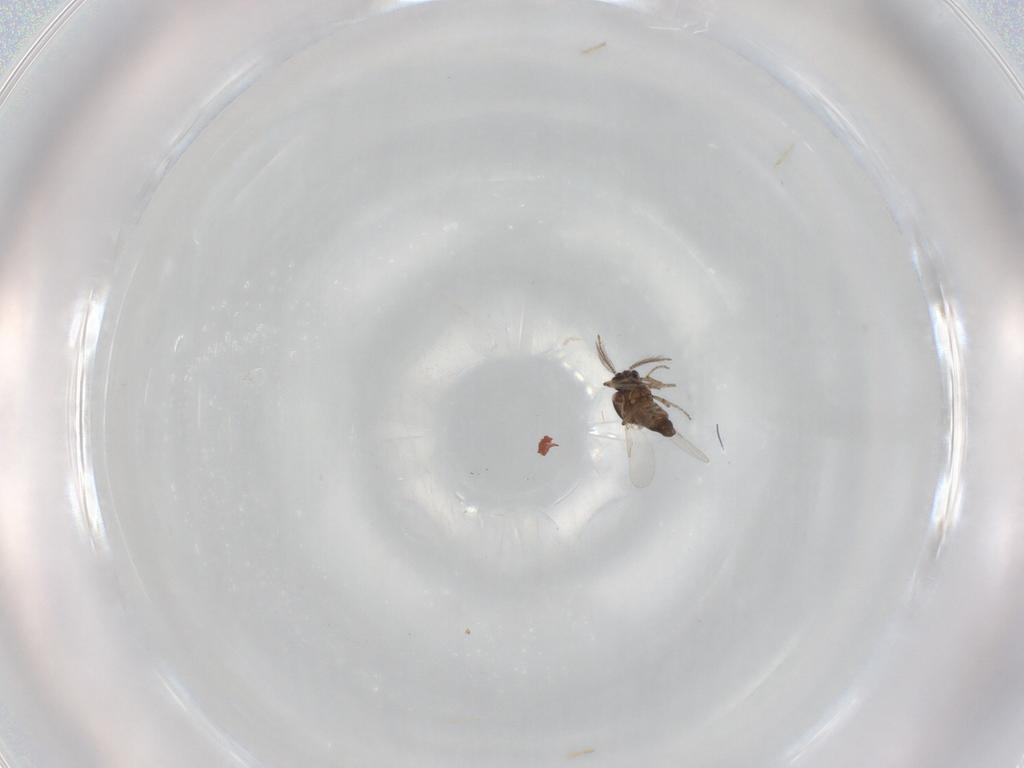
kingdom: Animalia
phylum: Arthropoda
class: Insecta
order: Diptera
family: Ceratopogonidae
